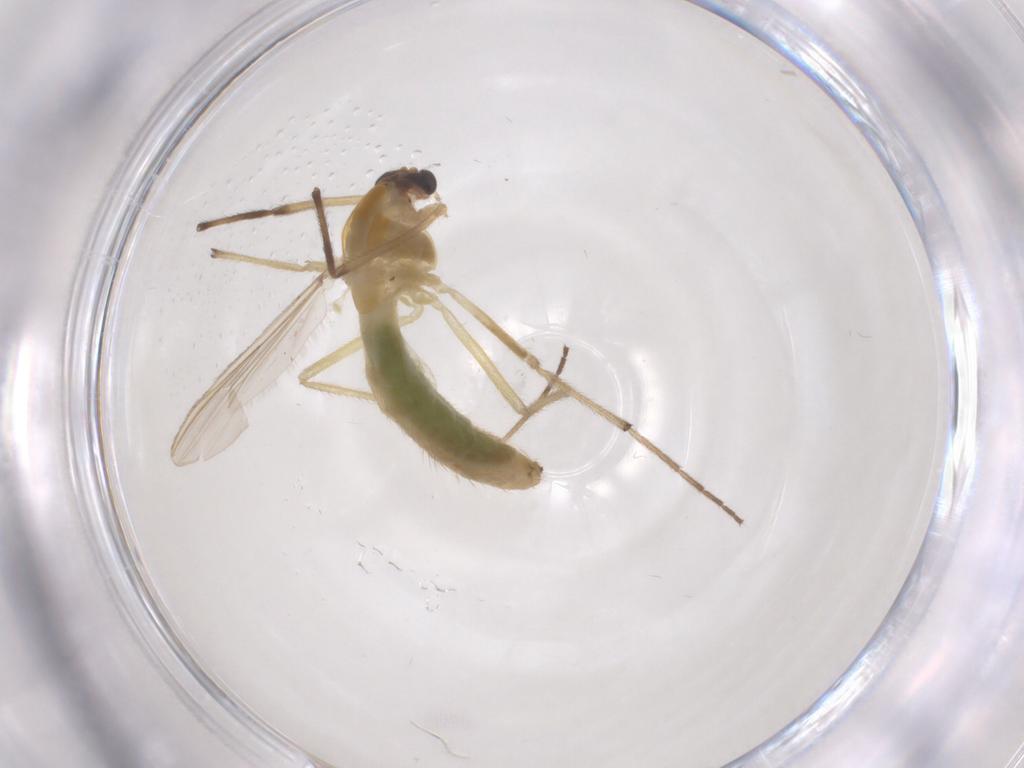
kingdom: Animalia
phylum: Arthropoda
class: Insecta
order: Diptera
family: Chironomidae
